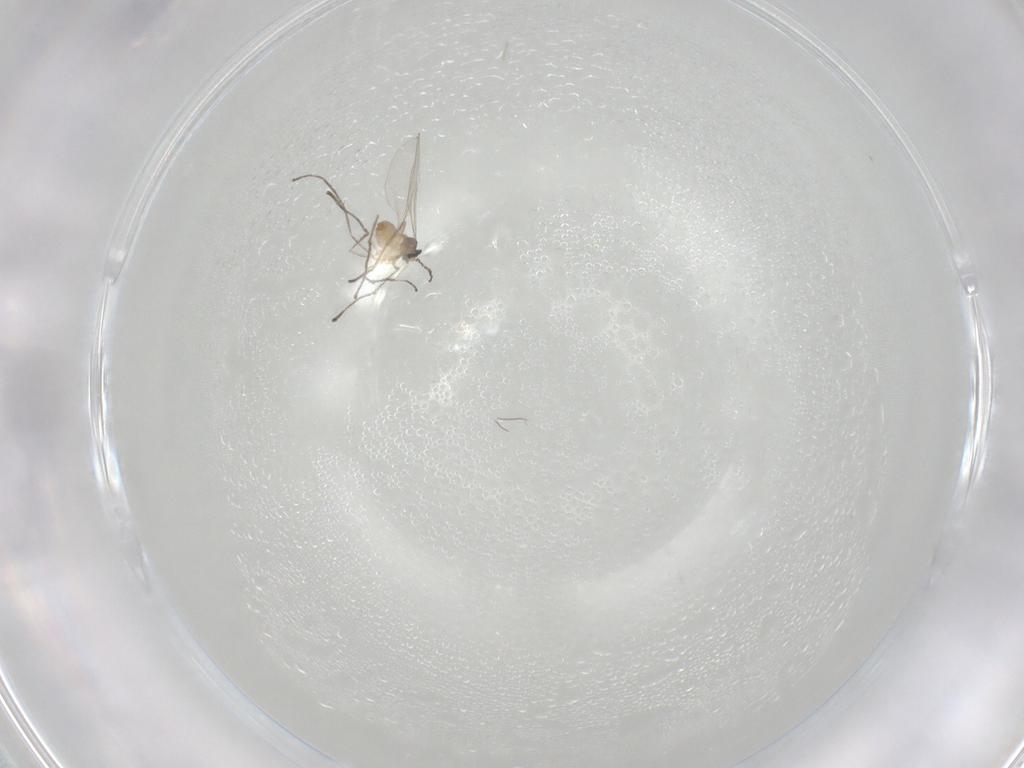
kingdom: Animalia
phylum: Arthropoda
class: Insecta
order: Diptera
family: Cecidomyiidae
